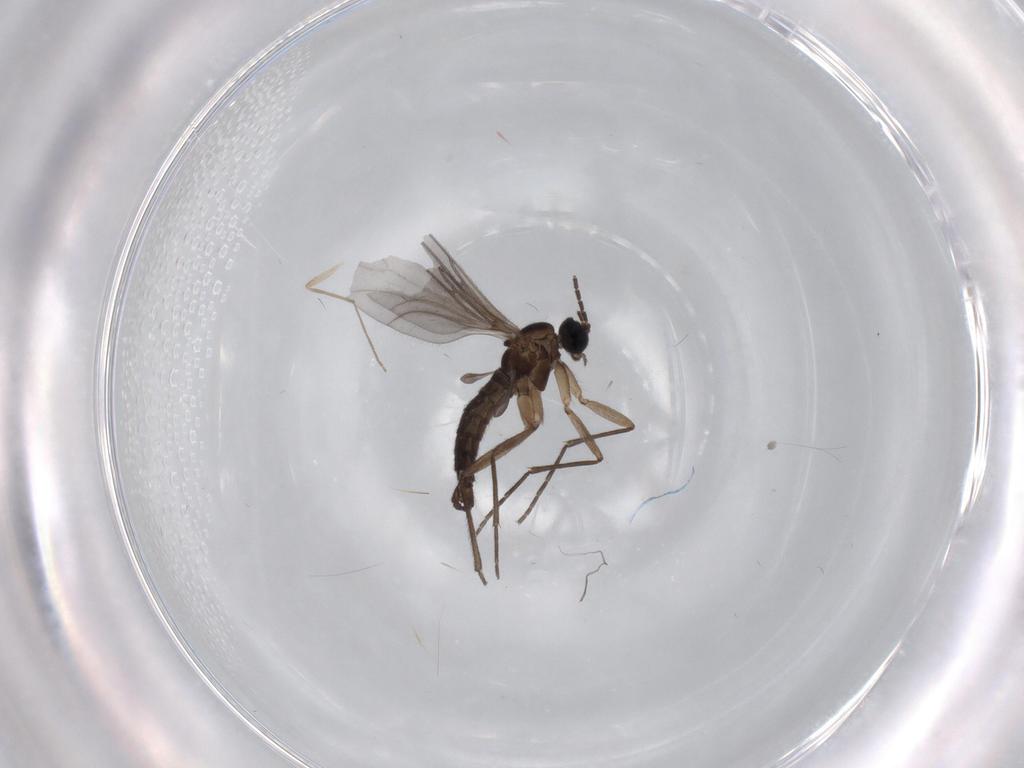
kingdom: Animalia
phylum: Arthropoda
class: Insecta
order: Diptera
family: Sciaridae
